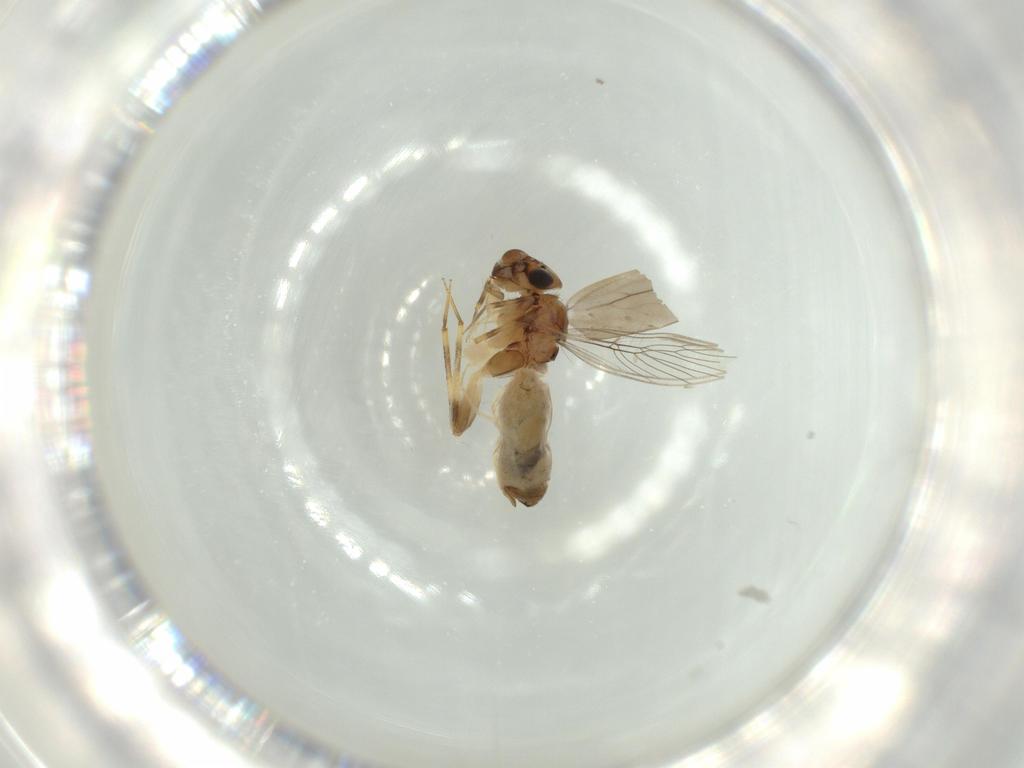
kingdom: Animalia
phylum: Arthropoda
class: Insecta
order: Psocodea
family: Lepidopsocidae
